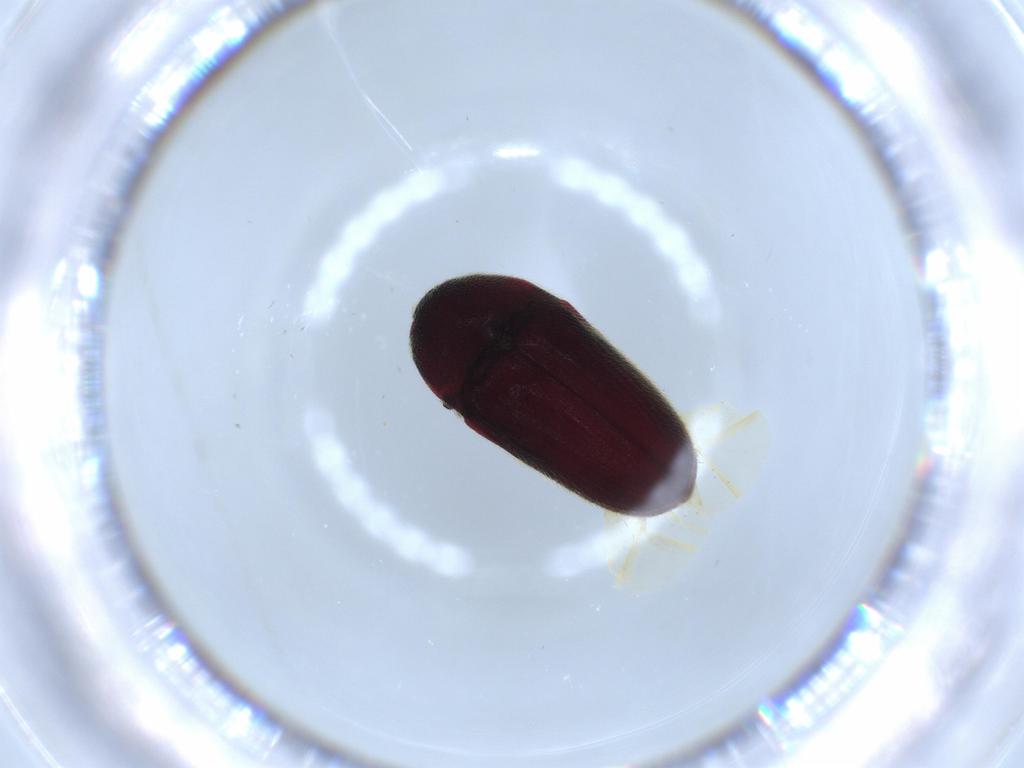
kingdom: Animalia
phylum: Arthropoda
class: Insecta
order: Coleoptera
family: Throscidae
